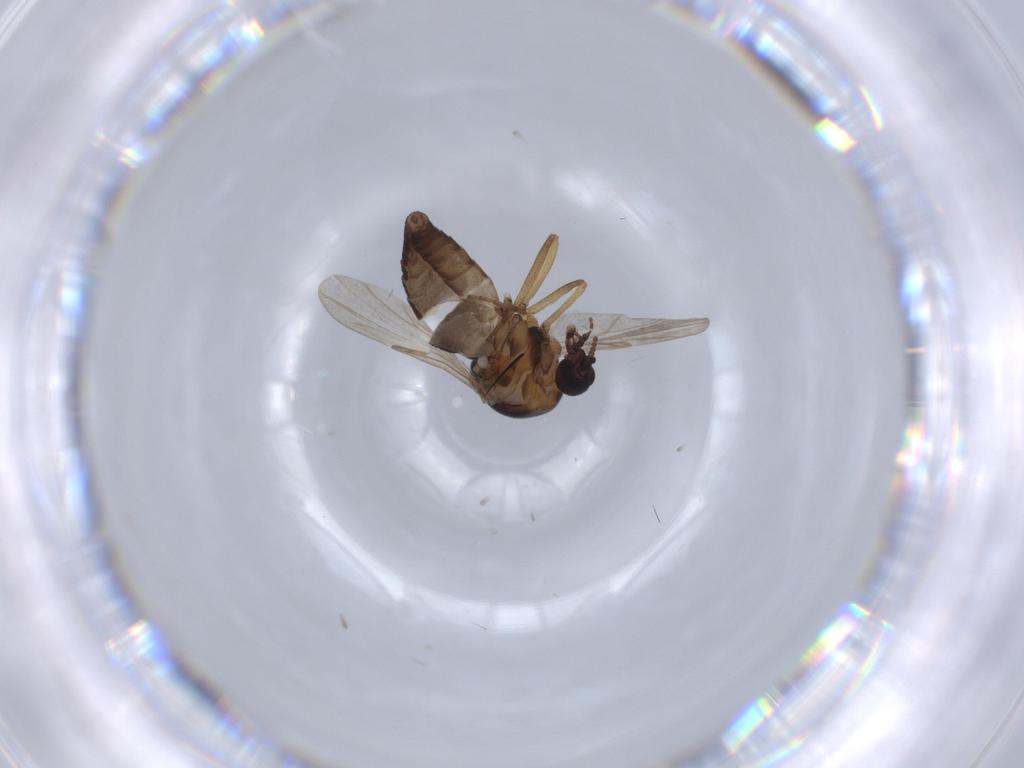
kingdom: Animalia
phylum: Arthropoda
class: Insecta
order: Diptera
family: Ceratopogonidae
